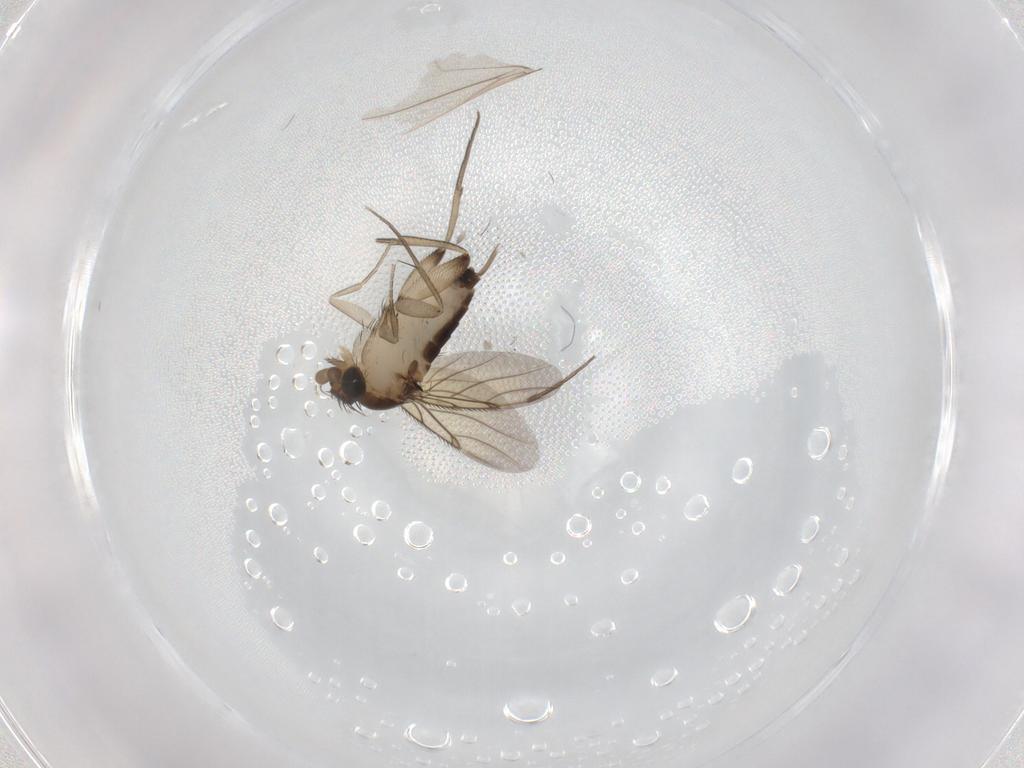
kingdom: Animalia
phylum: Arthropoda
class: Insecta
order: Diptera
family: Phoridae
